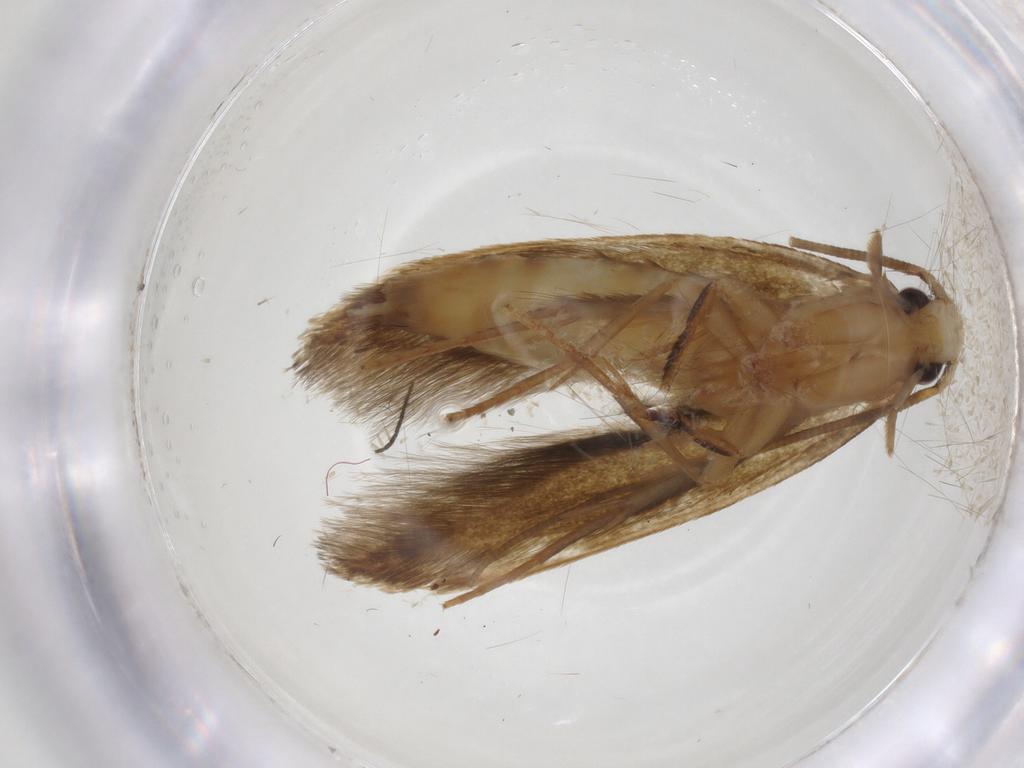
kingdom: Animalia
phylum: Arthropoda
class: Insecta
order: Lepidoptera
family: Tineidae
